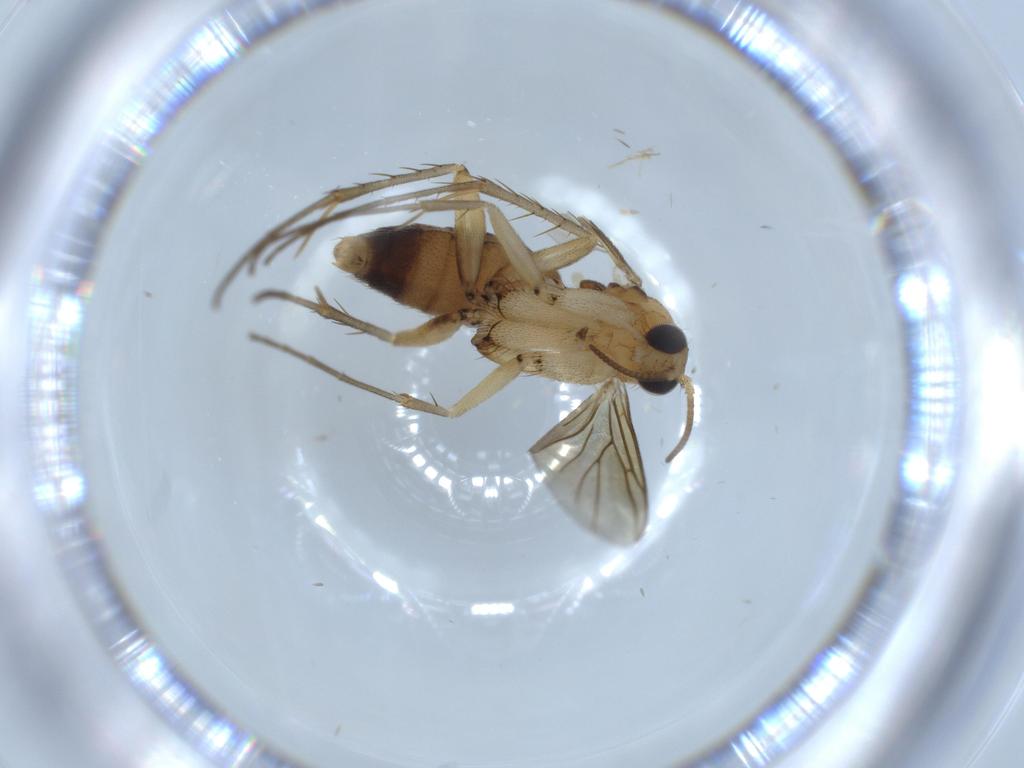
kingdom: Animalia
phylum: Arthropoda
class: Insecta
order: Diptera
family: Mycetophilidae
